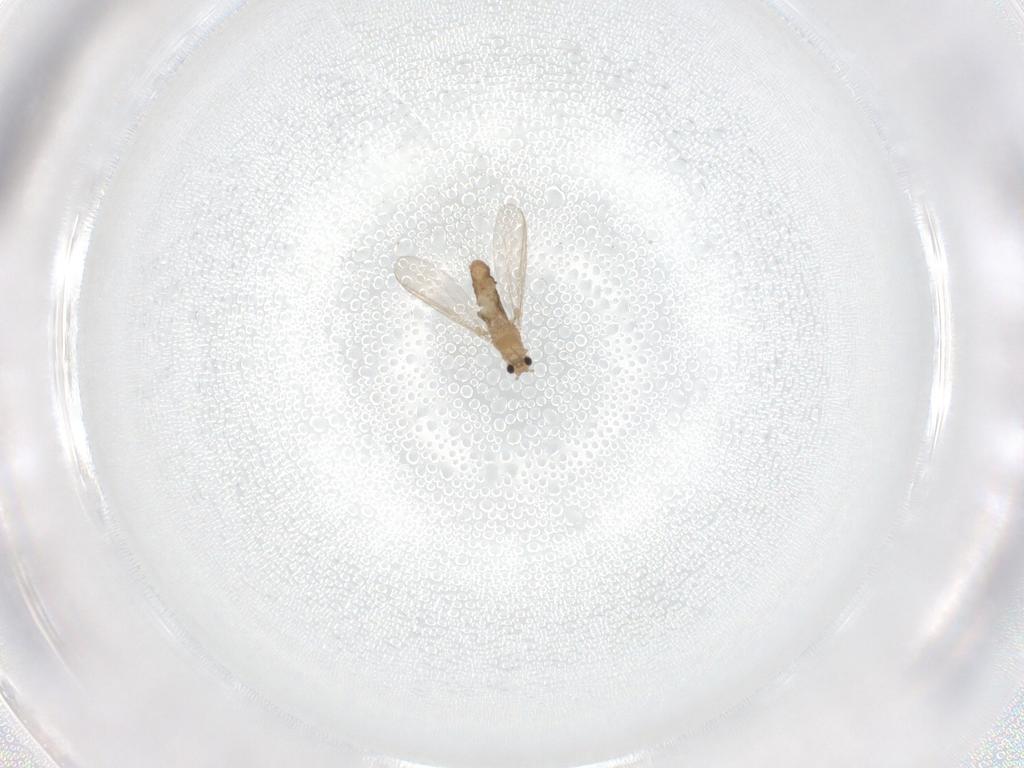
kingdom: Animalia
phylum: Arthropoda
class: Insecta
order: Diptera
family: Chironomidae
